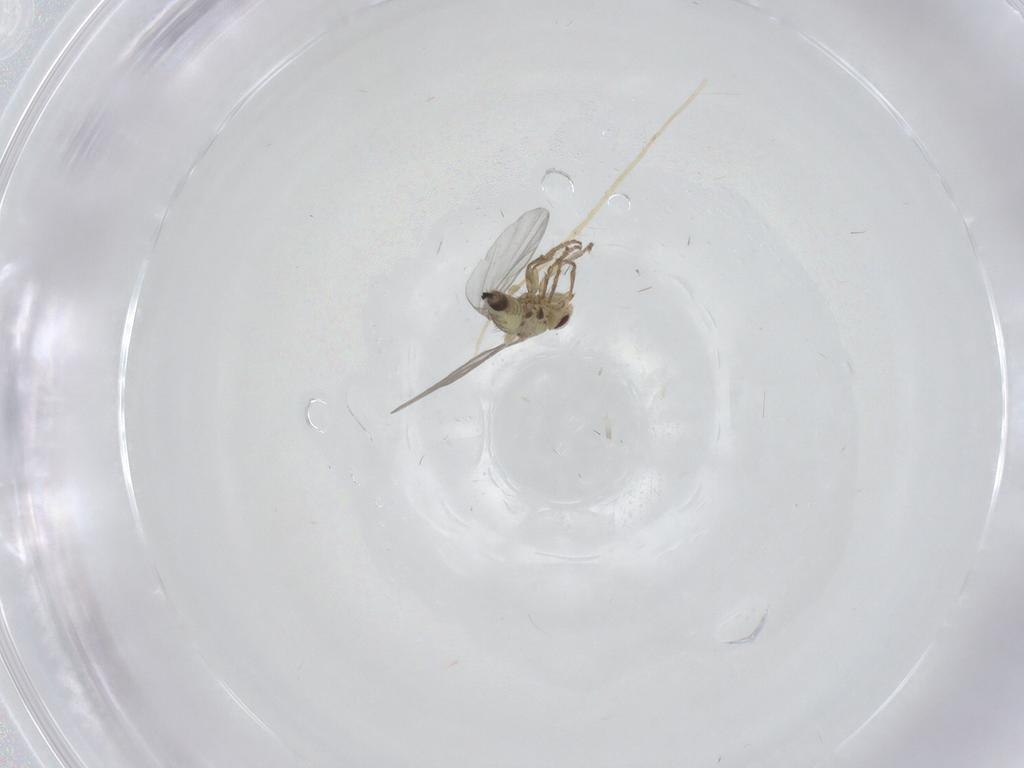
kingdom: Animalia
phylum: Arthropoda
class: Insecta
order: Diptera
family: Agromyzidae
